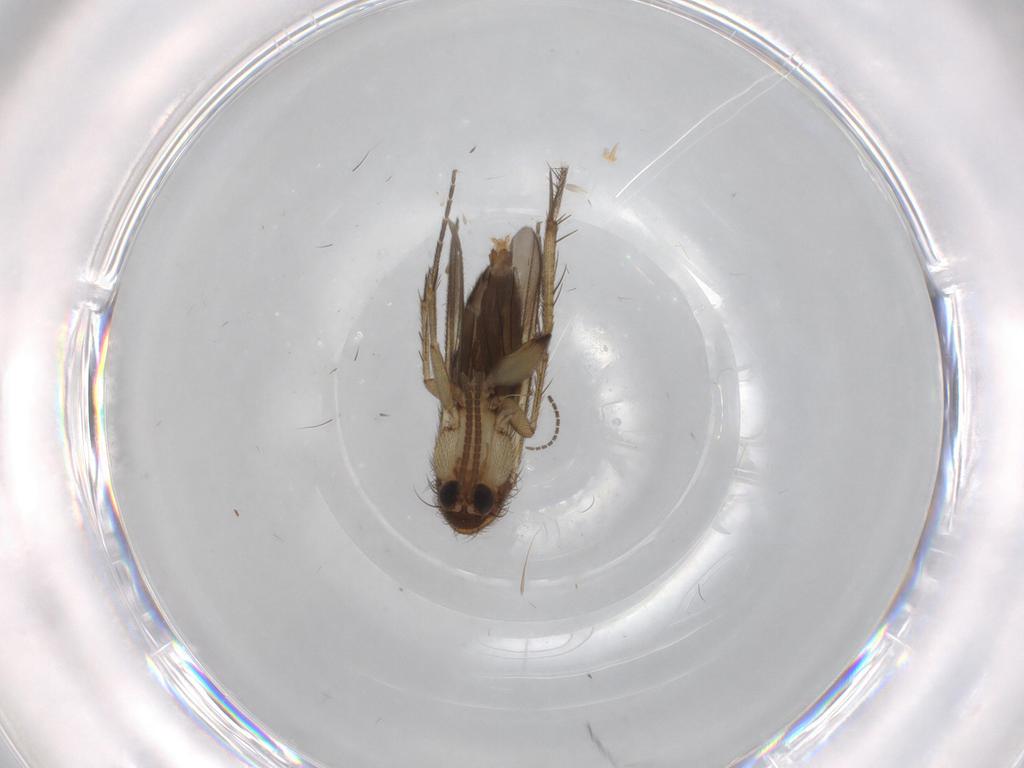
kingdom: Animalia
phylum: Arthropoda
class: Insecta
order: Diptera
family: Psychodidae
